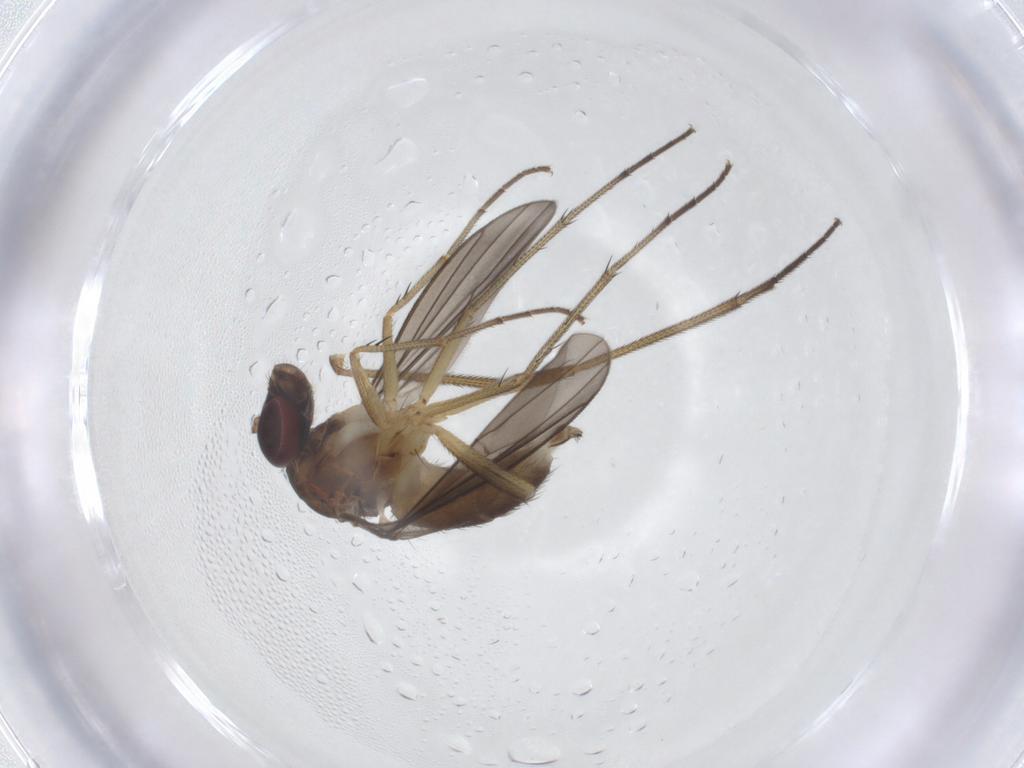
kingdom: Animalia
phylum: Arthropoda
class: Insecta
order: Diptera
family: Dolichopodidae
